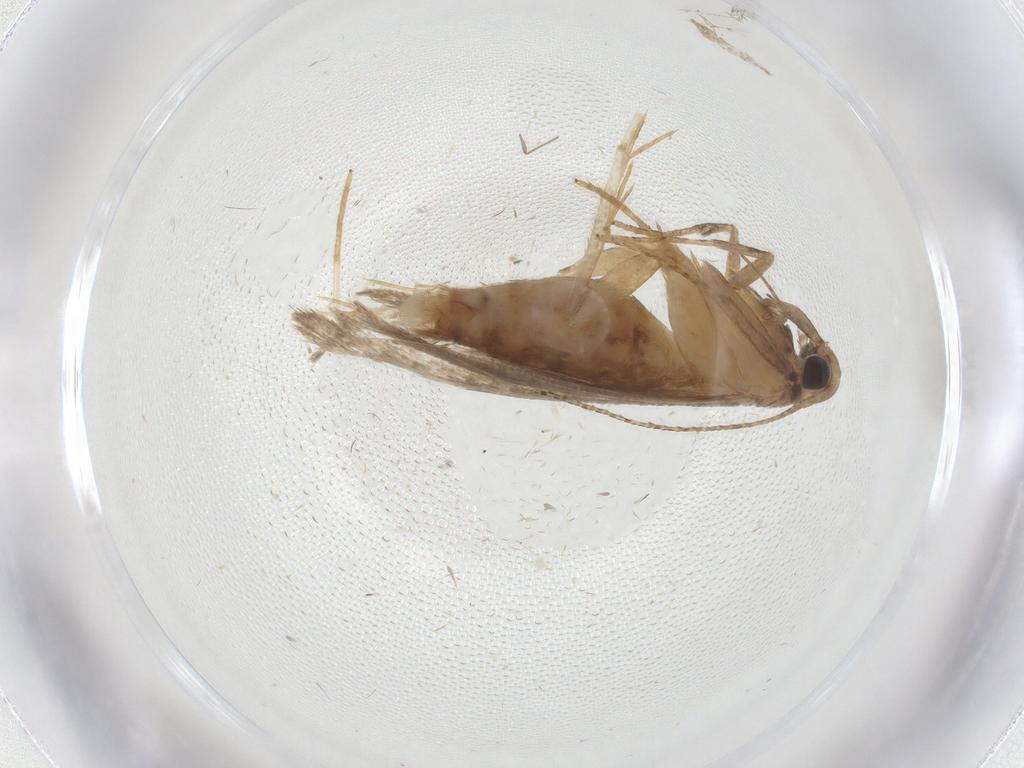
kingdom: Animalia
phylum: Arthropoda
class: Insecta
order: Lepidoptera
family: Gelechiidae
